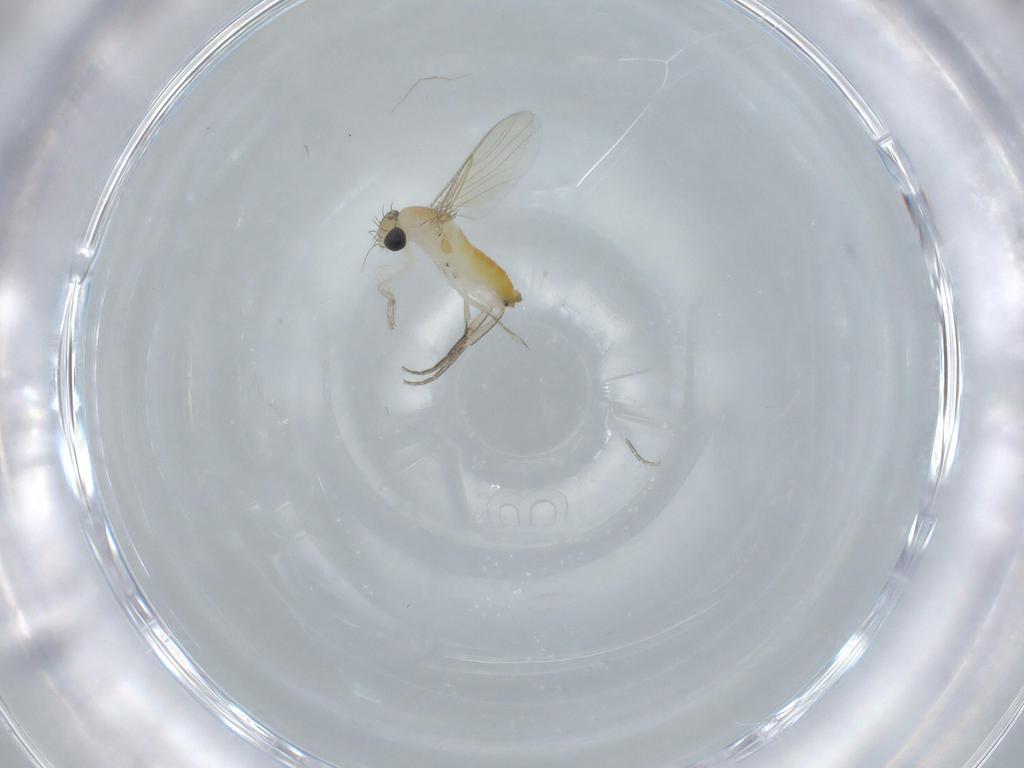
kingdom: Animalia
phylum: Arthropoda
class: Insecta
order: Diptera
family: Phoridae
